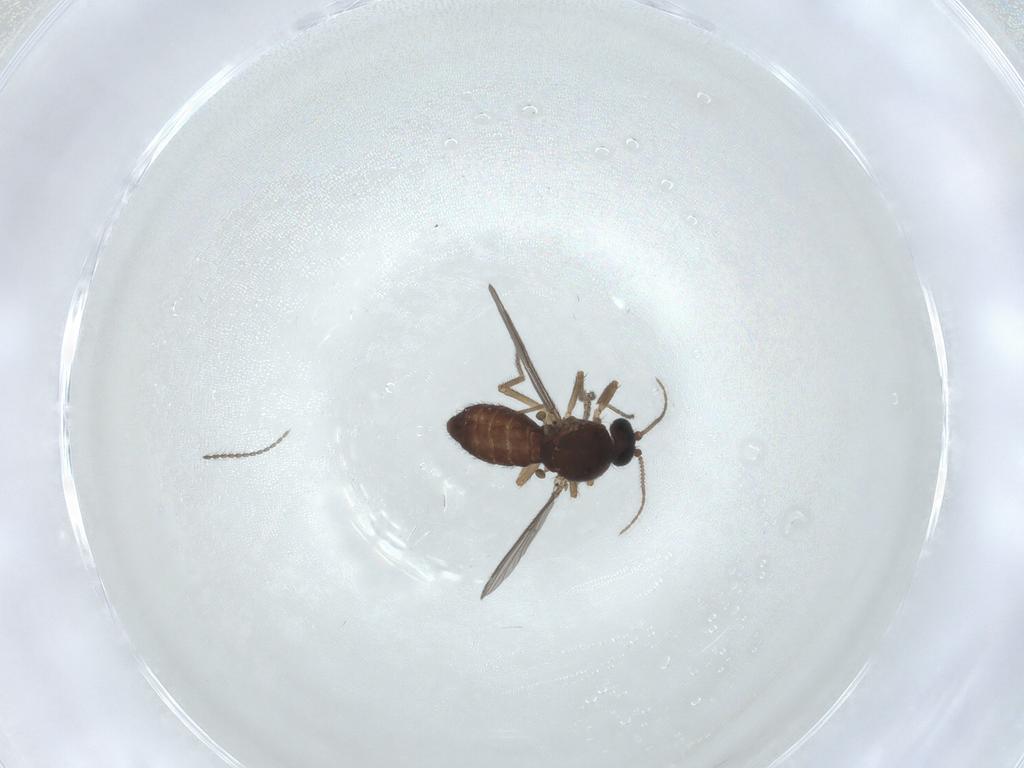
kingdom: Animalia
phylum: Arthropoda
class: Insecta
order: Diptera
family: Cecidomyiidae
